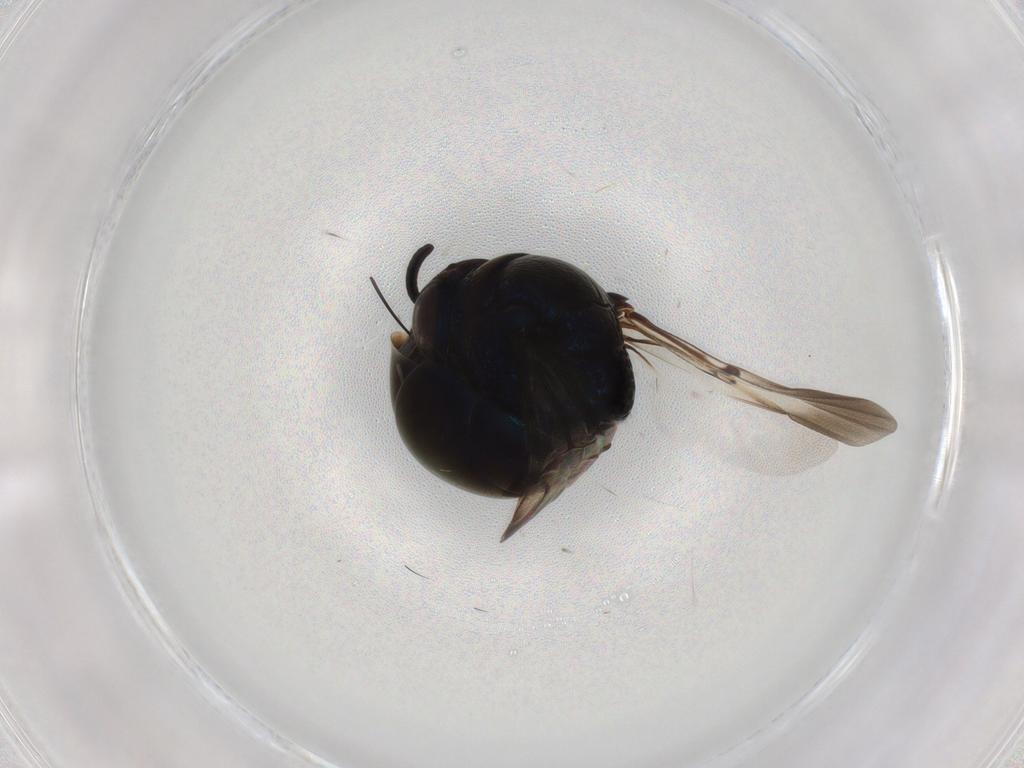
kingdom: Animalia
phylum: Arthropoda
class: Insecta
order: Hymenoptera
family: Chrysididae
